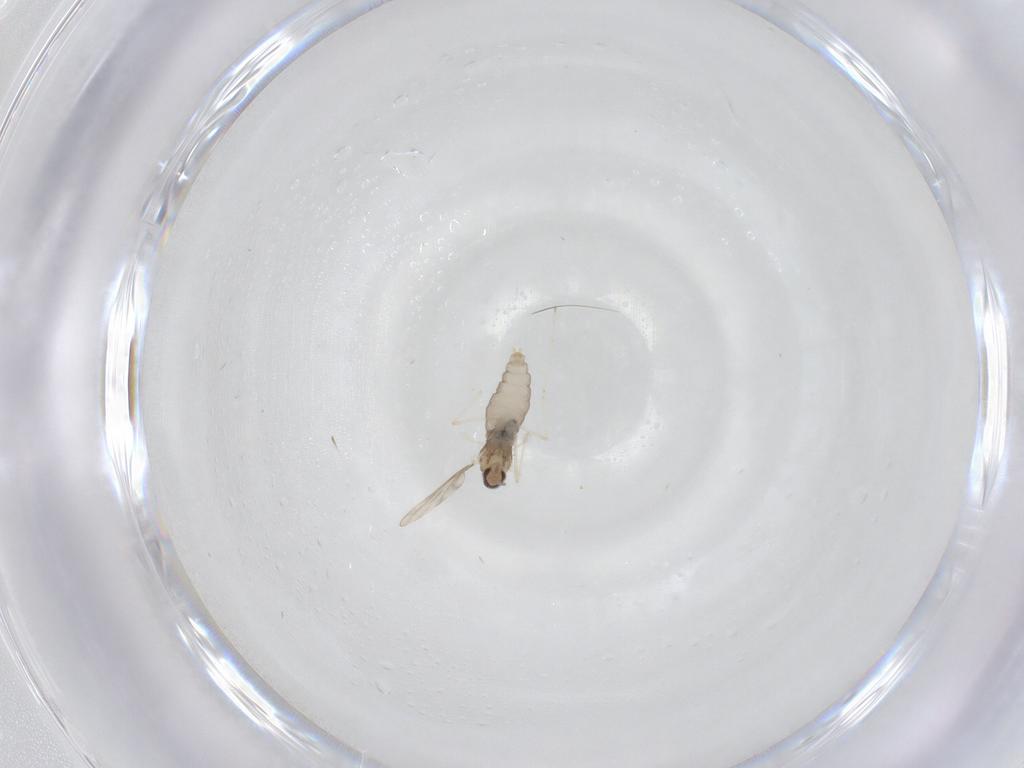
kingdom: Animalia
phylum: Arthropoda
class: Insecta
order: Diptera
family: Cecidomyiidae
